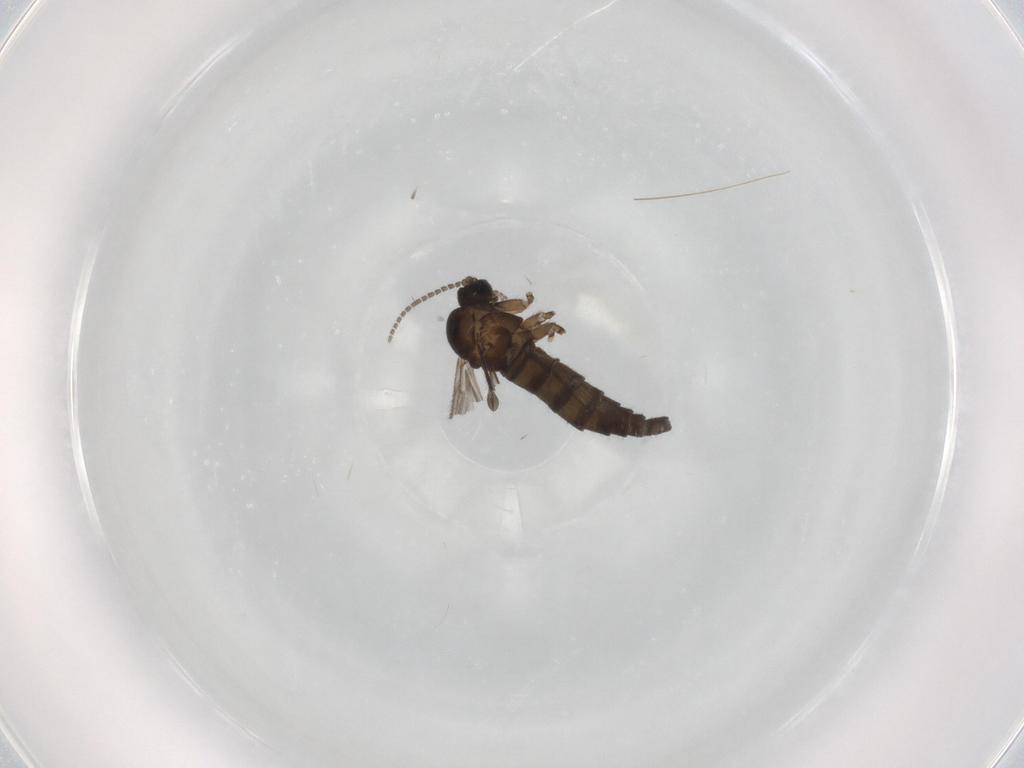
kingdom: Animalia
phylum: Arthropoda
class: Insecta
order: Diptera
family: Sciaridae
